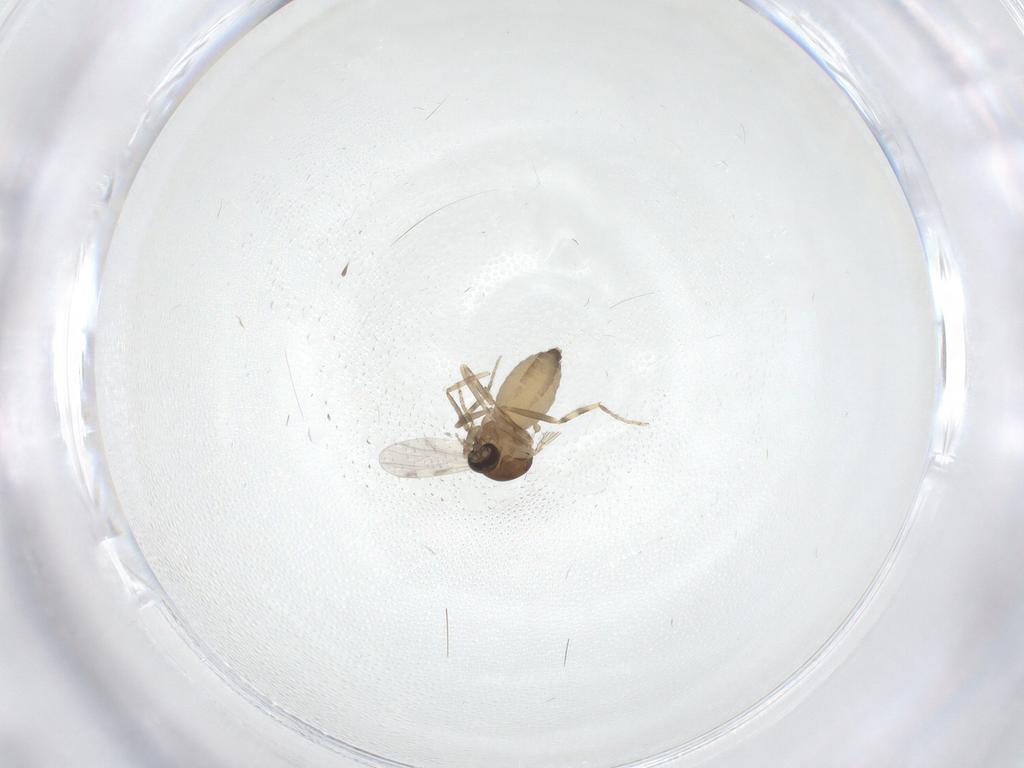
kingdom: Animalia
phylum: Arthropoda
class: Insecta
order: Diptera
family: Ceratopogonidae
